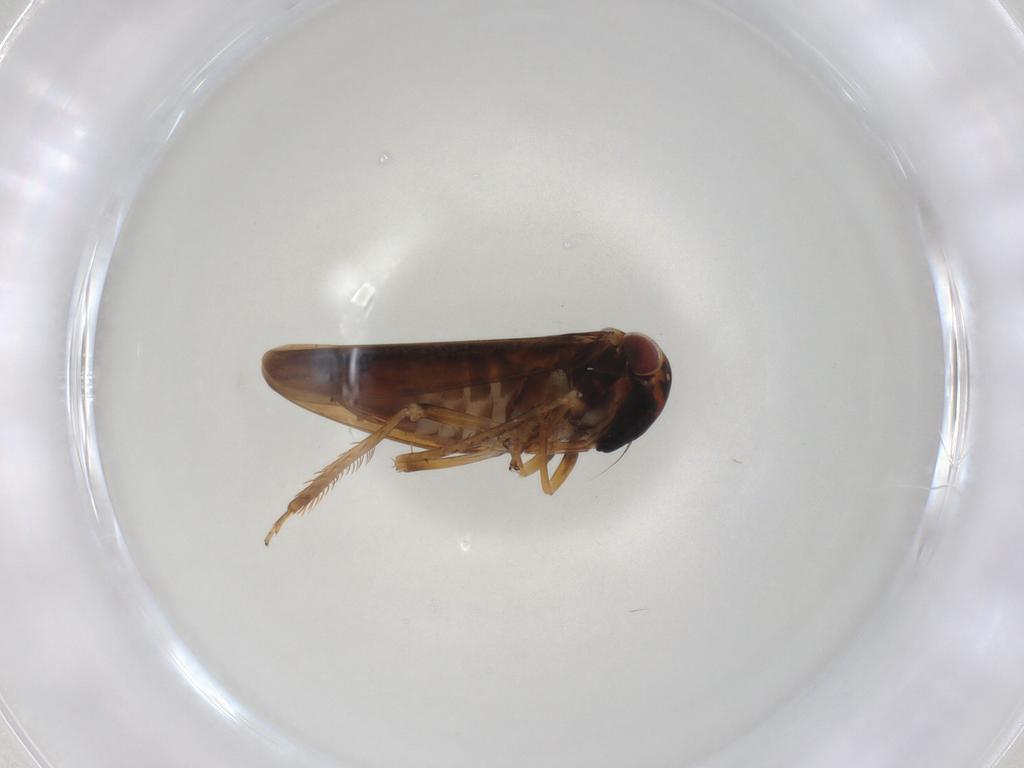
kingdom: Animalia
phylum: Arthropoda
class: Insecta
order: Hemiptera
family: Cicadellidae
